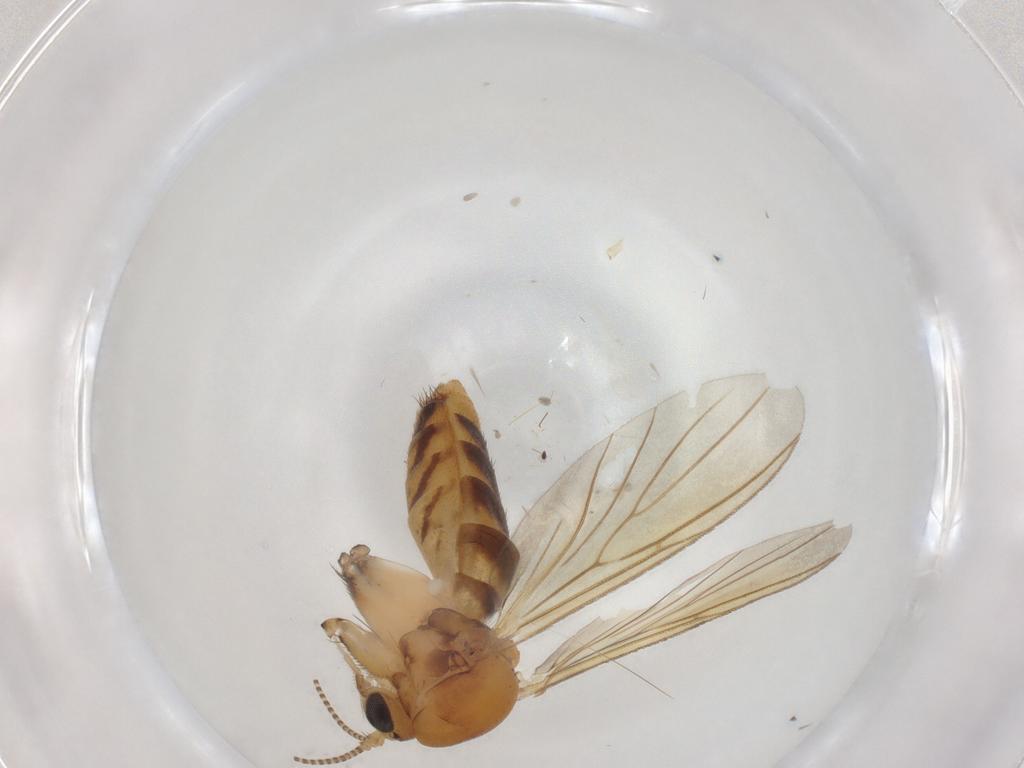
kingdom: Animalia
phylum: Arthropoda
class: Insecta
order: Diptera
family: Mycetophilidae
